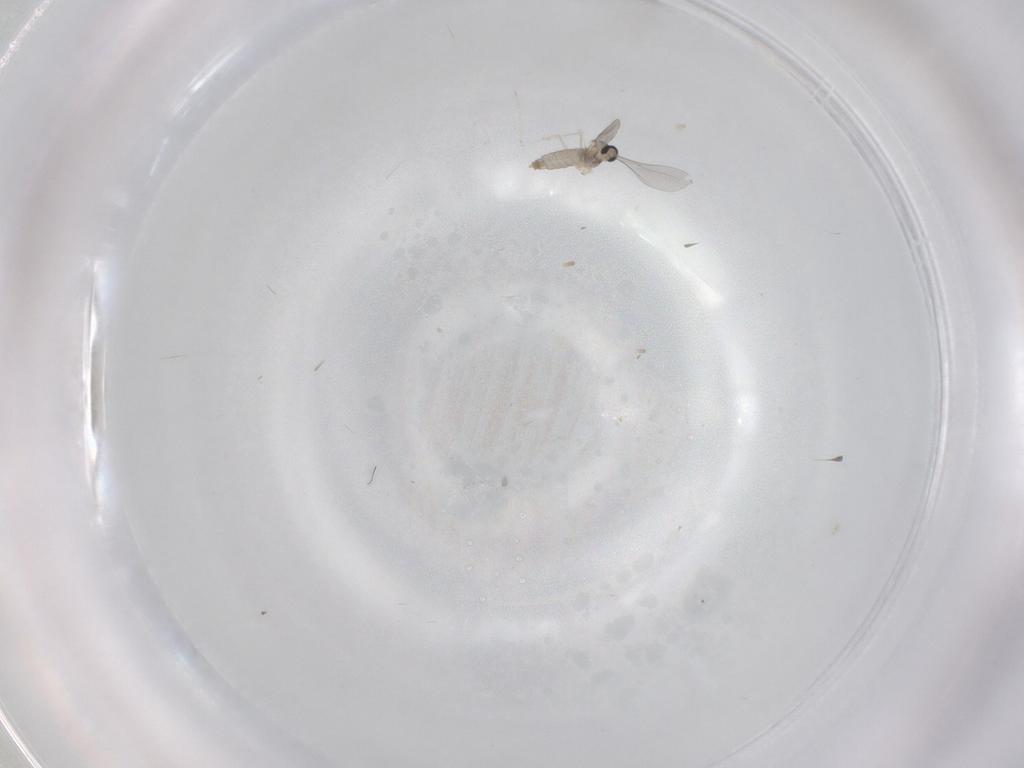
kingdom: Animalia
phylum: Arthropoda
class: Insecta
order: Diptera
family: Cecidomyiidae
